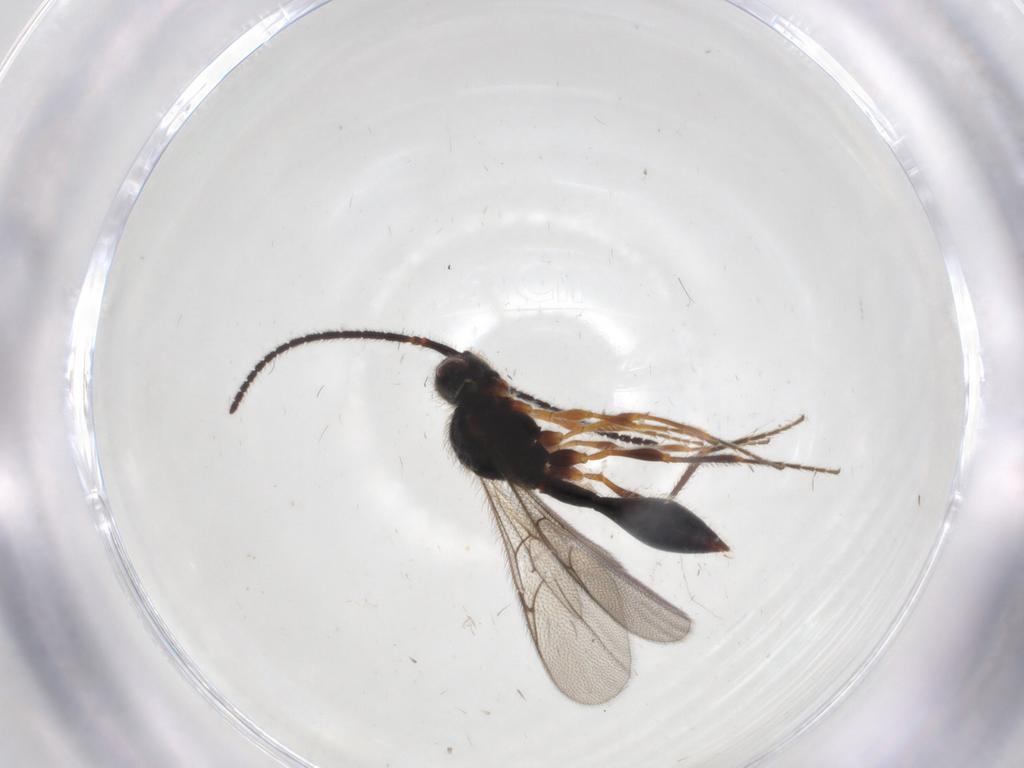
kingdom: Animalia
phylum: Arthropoda
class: Insecta
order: Hymenoptera
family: Diapriidae
